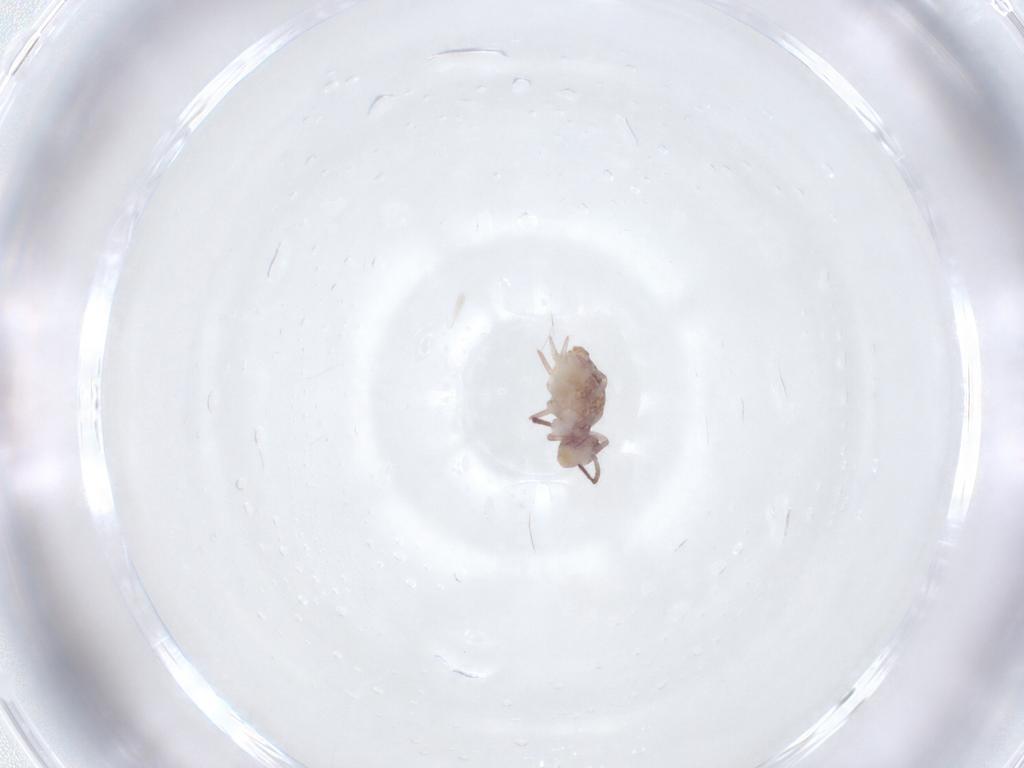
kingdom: Animalia
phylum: Arthropoda
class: Collembola
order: Symphypleona
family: Dicyrtomidae
